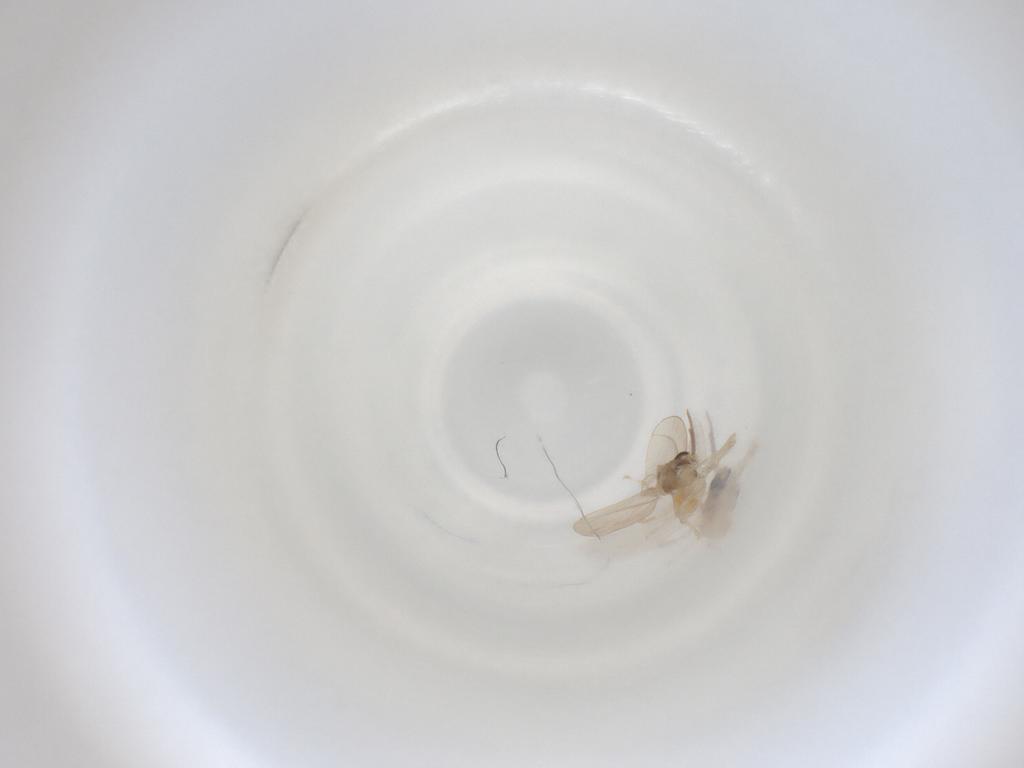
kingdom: Animalia
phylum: Arthropoda
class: Insecta
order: Diptera
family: Cecidomyiidae
